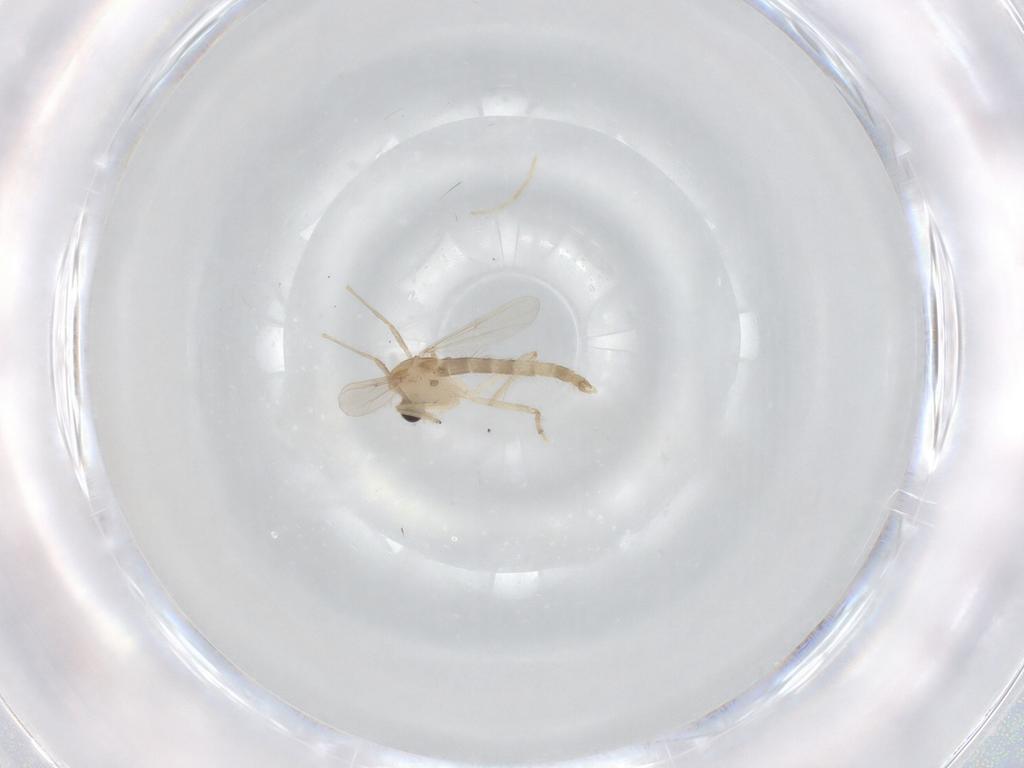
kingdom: Animalia
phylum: Arthropoda
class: Insecta
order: Diptera
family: Chironomidae
